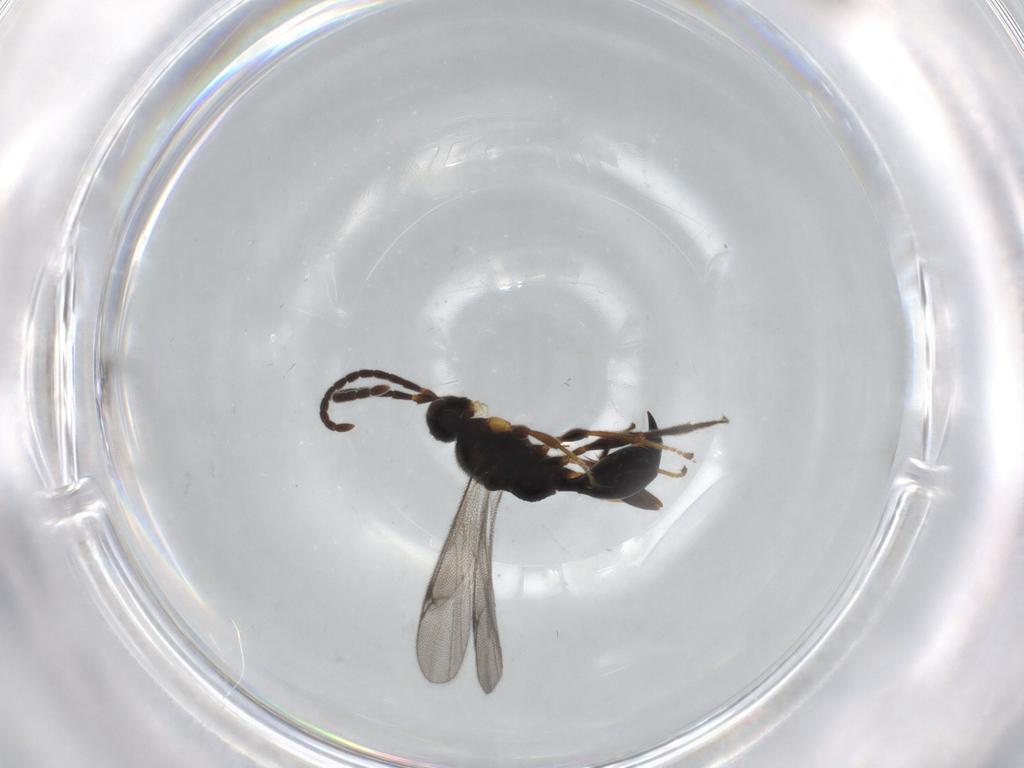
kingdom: Animalia
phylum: Arthropoda
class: Insecta
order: Hymenoptera
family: Proctotrupidae
